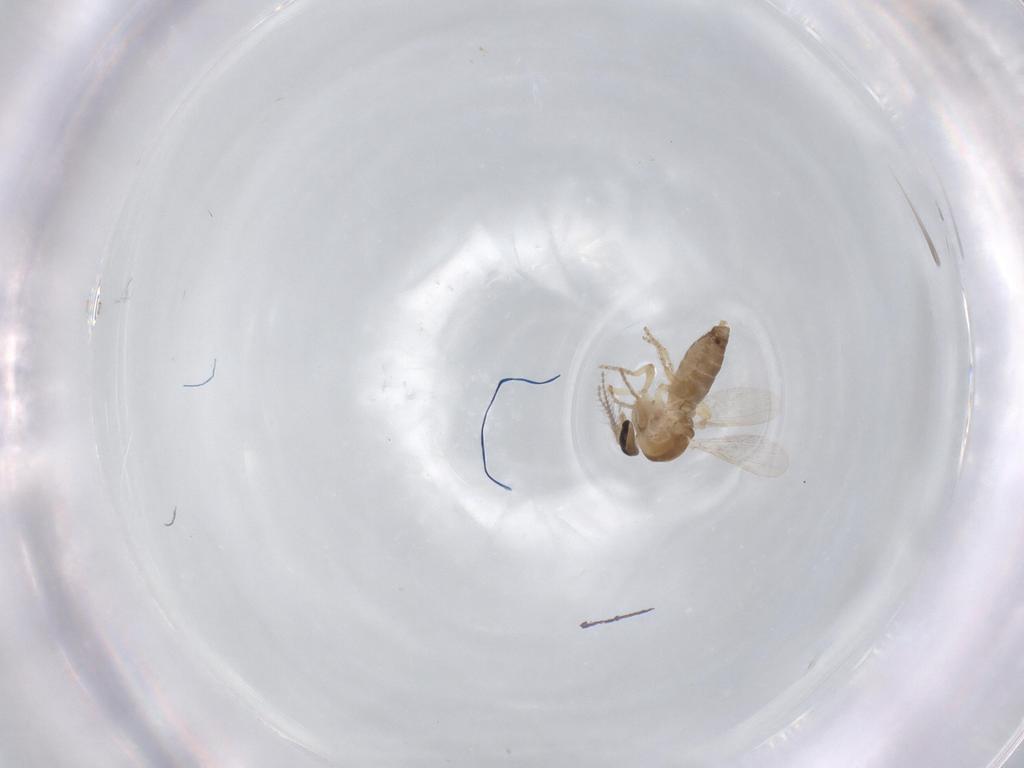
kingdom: Animalia
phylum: Arthropoda
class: Insecta
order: Diptera
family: Ceratopogonidae
